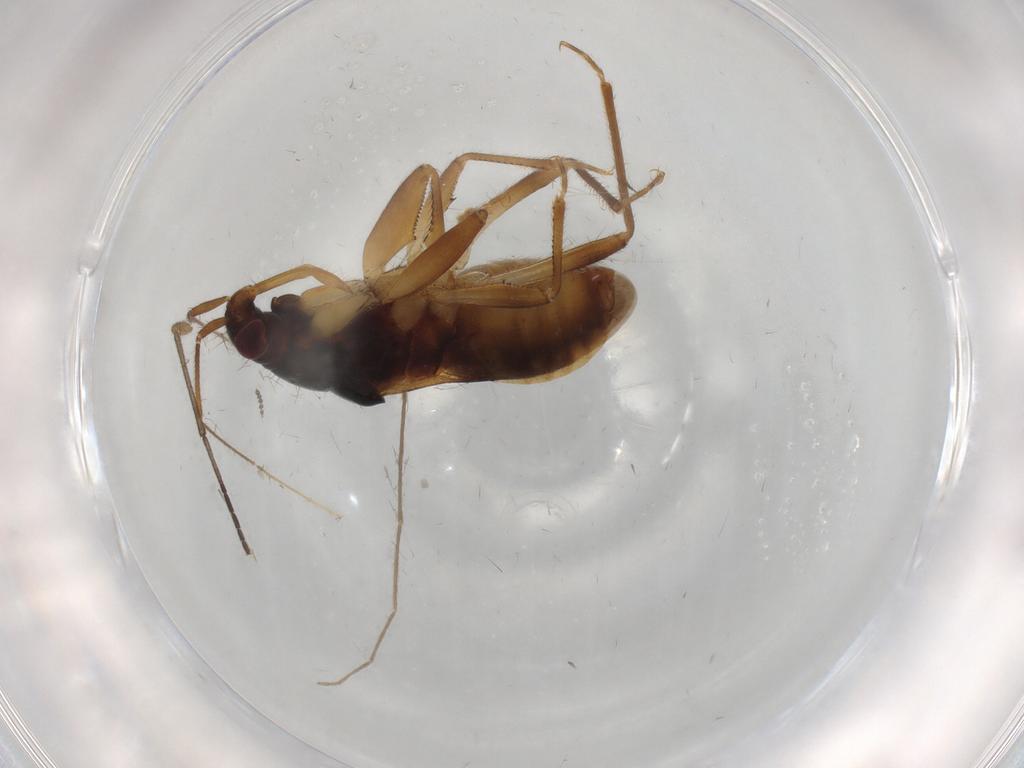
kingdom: Animalia
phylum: Arthropoda
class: Insecta
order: Hemiptera
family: Nabidae
